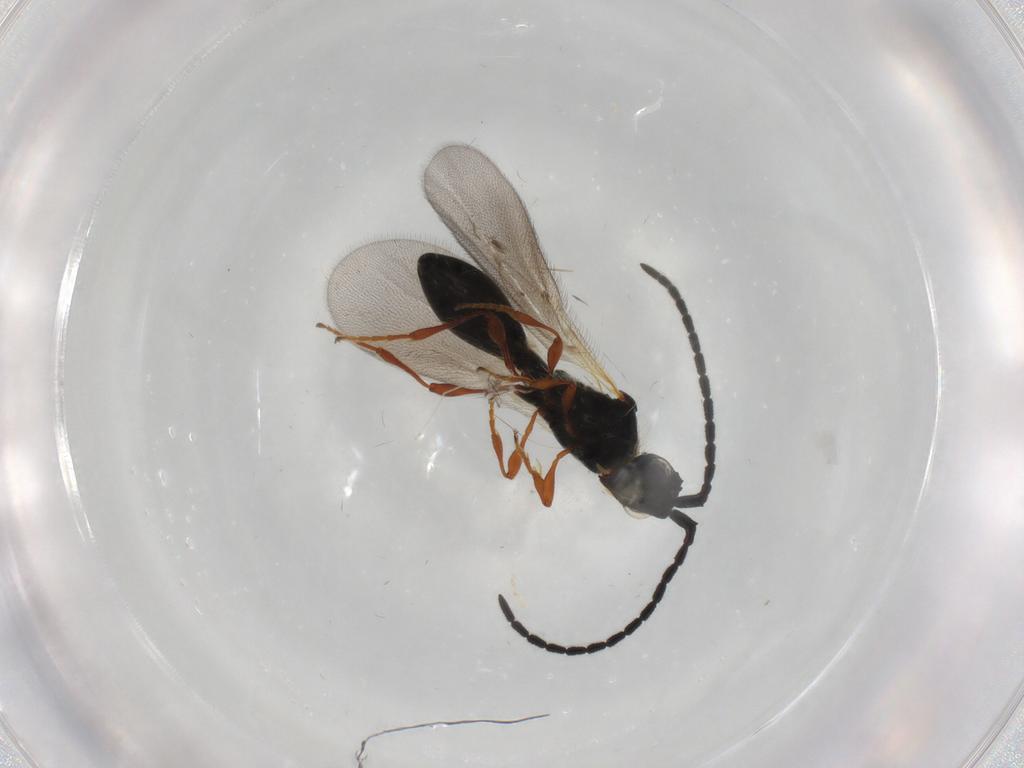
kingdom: Animalia
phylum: Arthropoda
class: Insecta
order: Hymenoptera
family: Diapriidae
